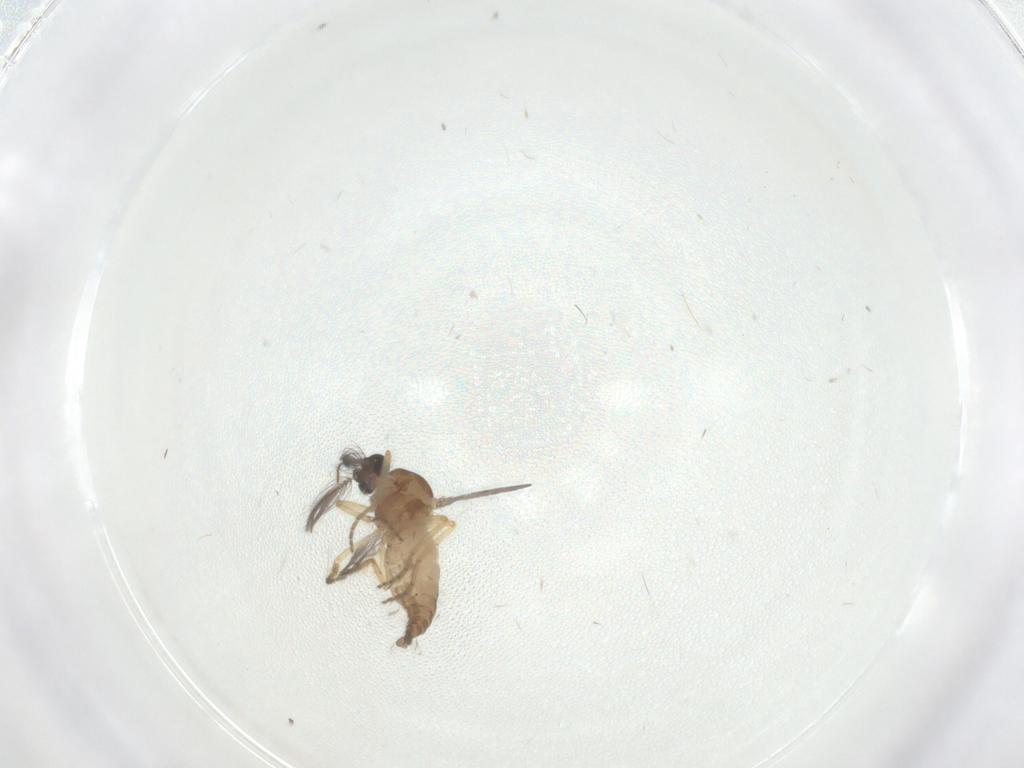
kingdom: Animalia
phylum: Arthropoda
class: Insecta
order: Diptera
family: Ceratopogonidae
